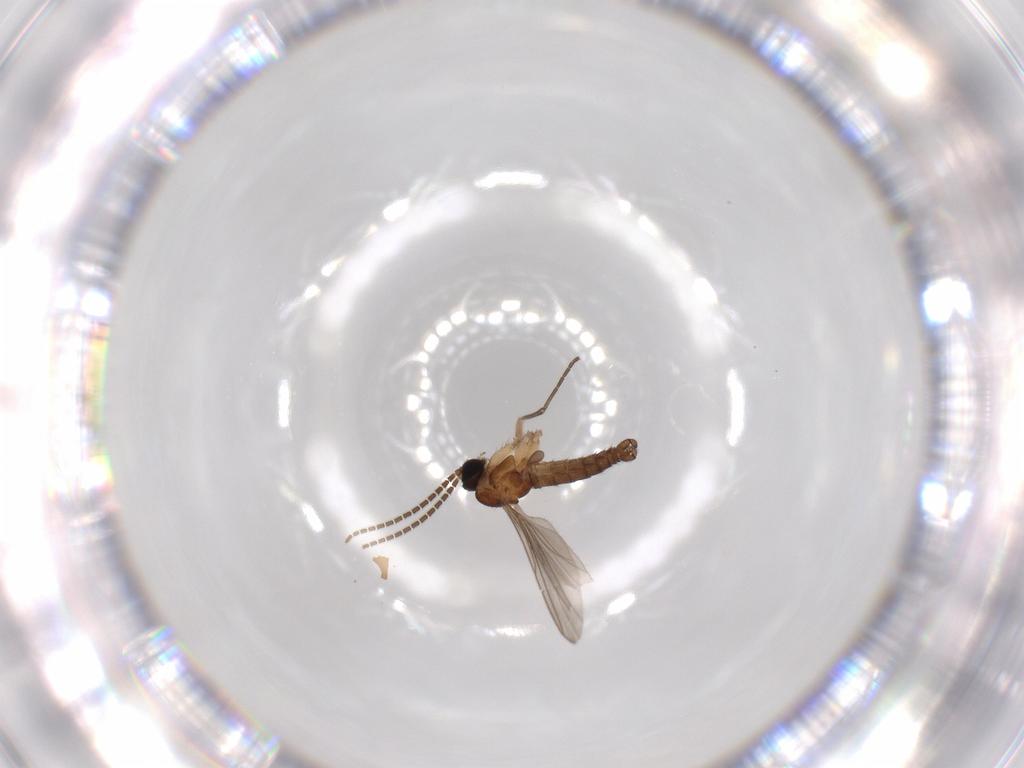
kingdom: Animalia
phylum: Arthropoda
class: Insecta
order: Diptera
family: Sciaridae
